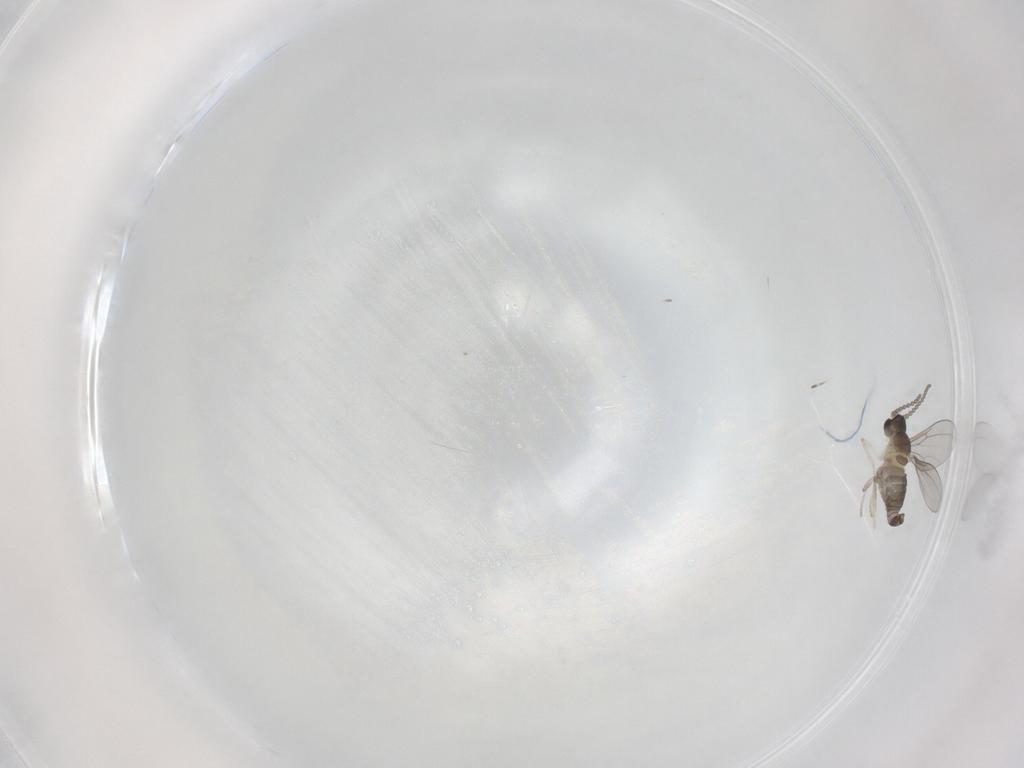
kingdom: Animalia
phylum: Arthropoda
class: Insecta
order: Diptera
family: Cecidomyiidae
